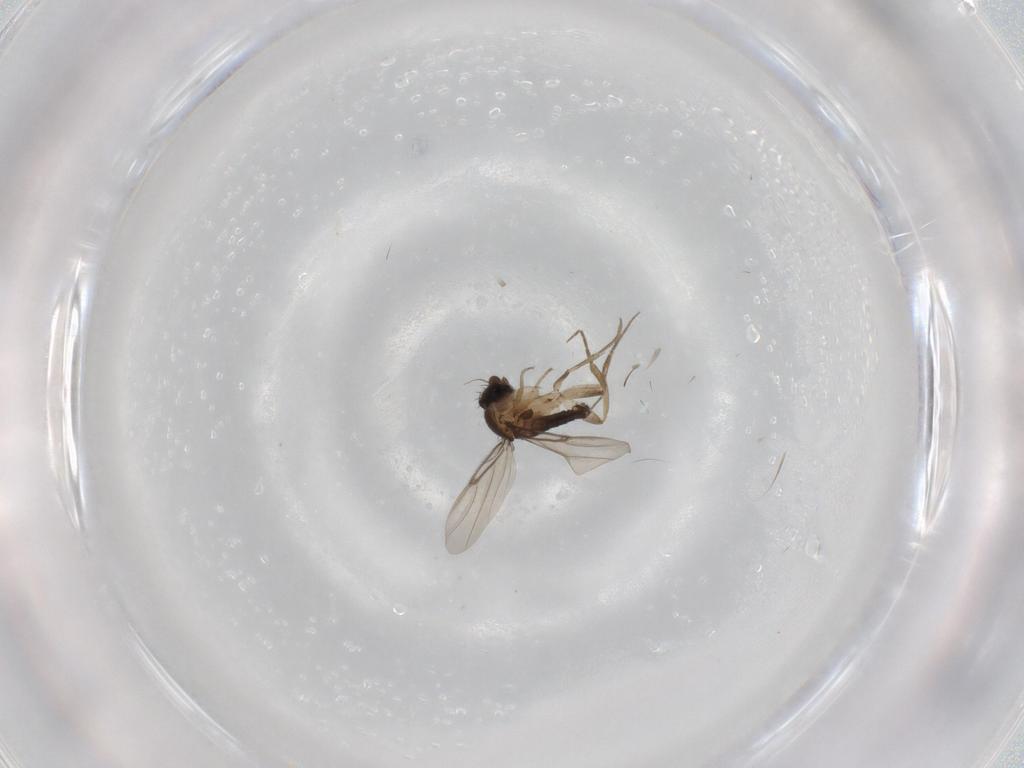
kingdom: Animalia
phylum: Arthropoda
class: Insecta
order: Diptera
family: Phoridae
